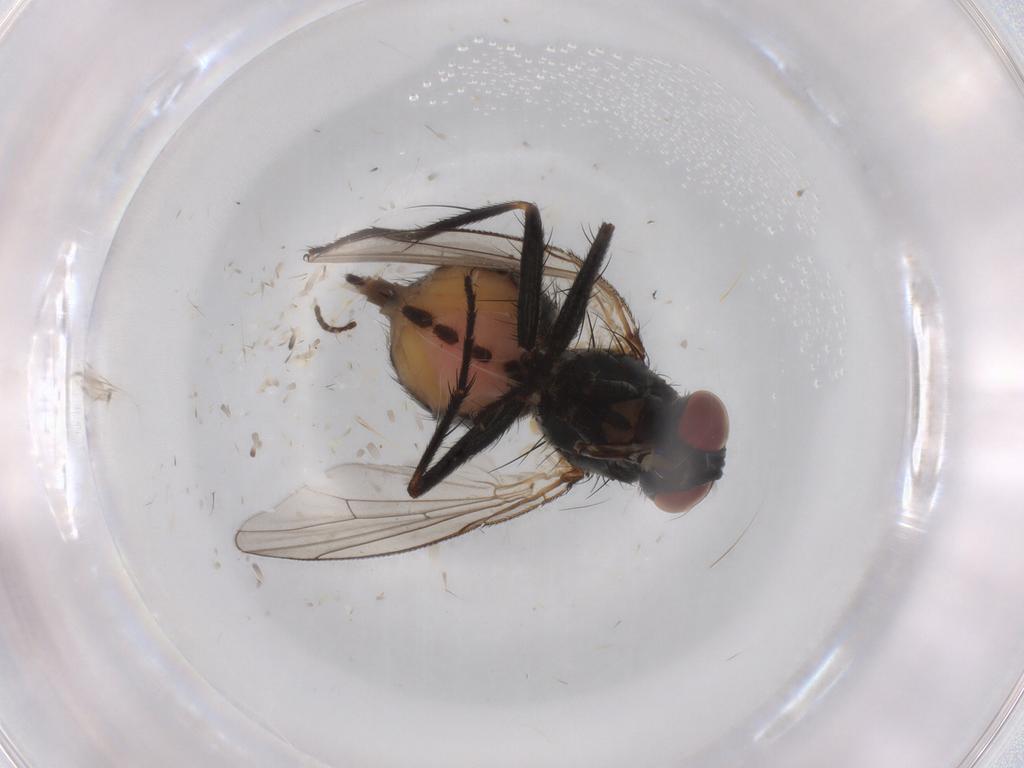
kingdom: Animalia
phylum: Arthropoda
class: Insecta
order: Diptera
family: Muscidae
